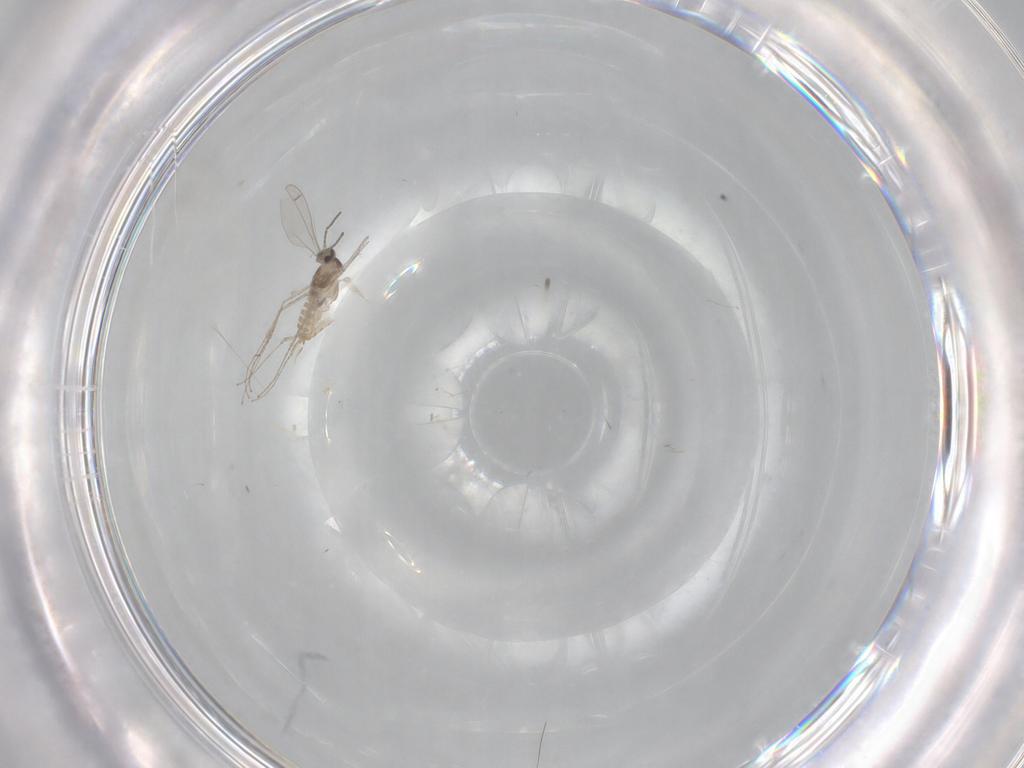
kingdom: Animalia
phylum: Arthropoda
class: Insecta
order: Diptera
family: Cecidomyiidae
